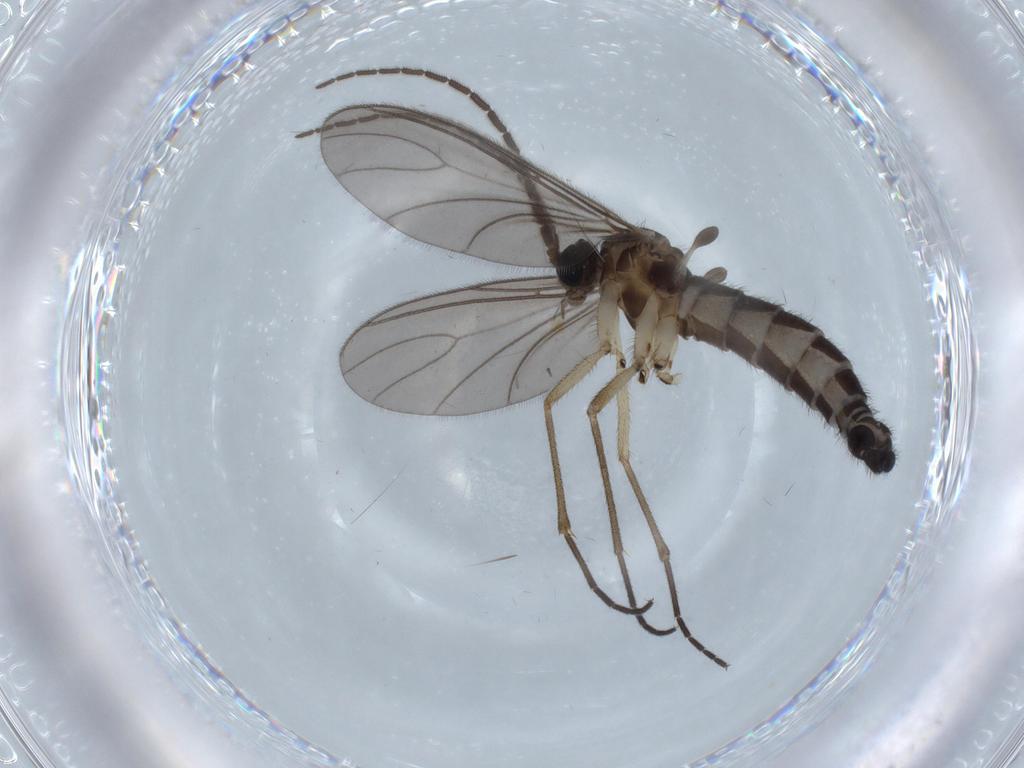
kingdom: Animalia
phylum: Arthropoda
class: Insecta
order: Diptera
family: Sciaridae
